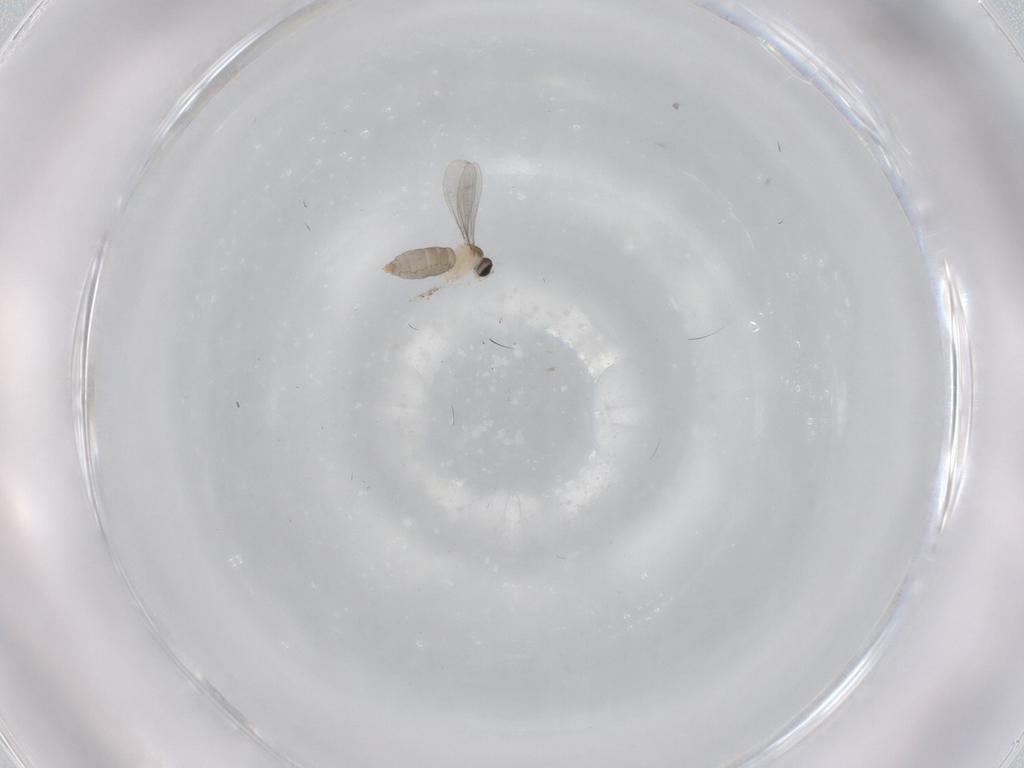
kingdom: Animalia
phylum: Arthropoda
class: Insecta
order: Diptera
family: Cecidomyiidae
